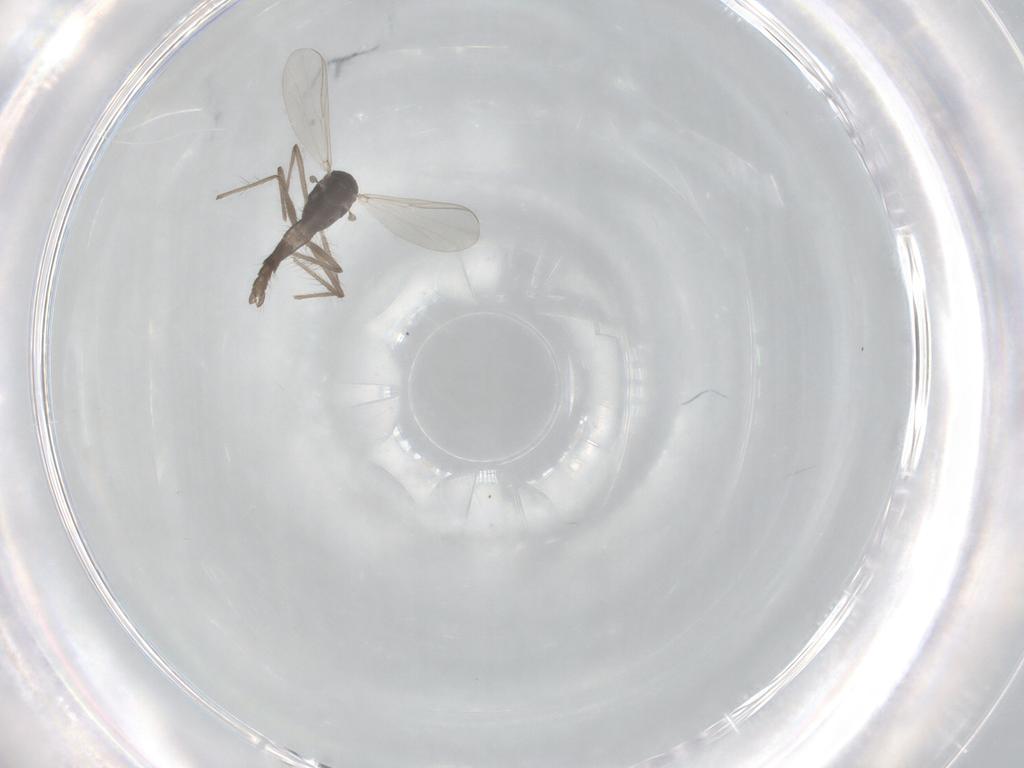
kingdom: Animalia
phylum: Arthropoda
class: Insecta
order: Diptera
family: Chironomidae
